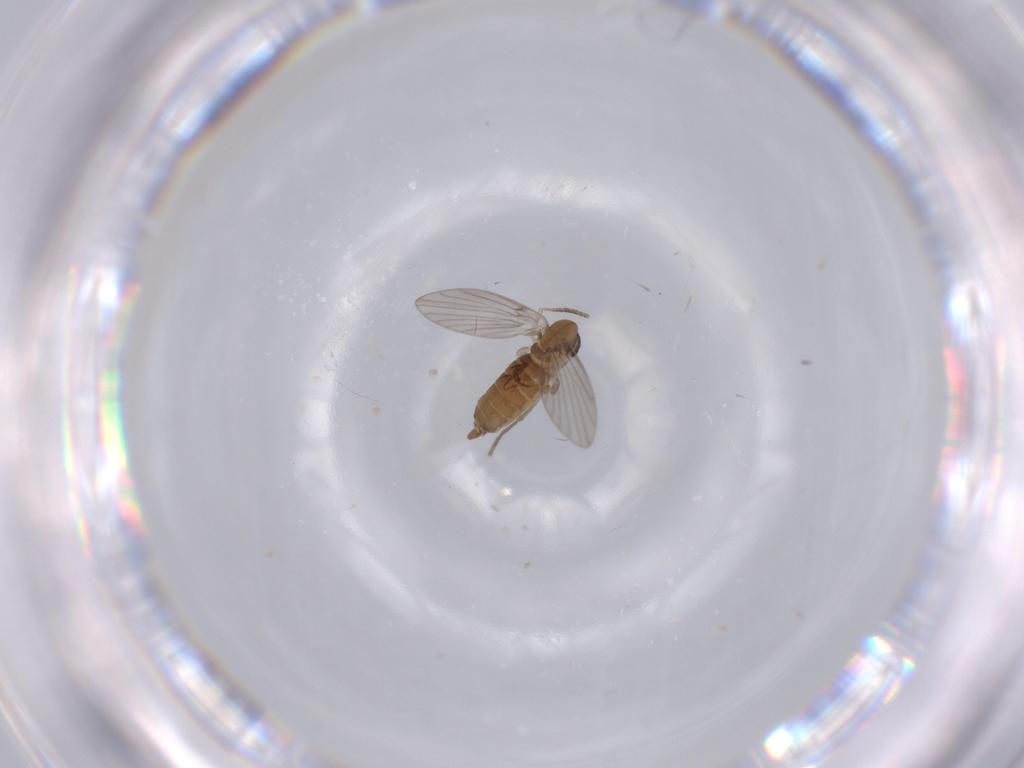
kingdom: Animalia
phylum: Arthropoda
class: Insecta
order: Diptera
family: Psychodidae
